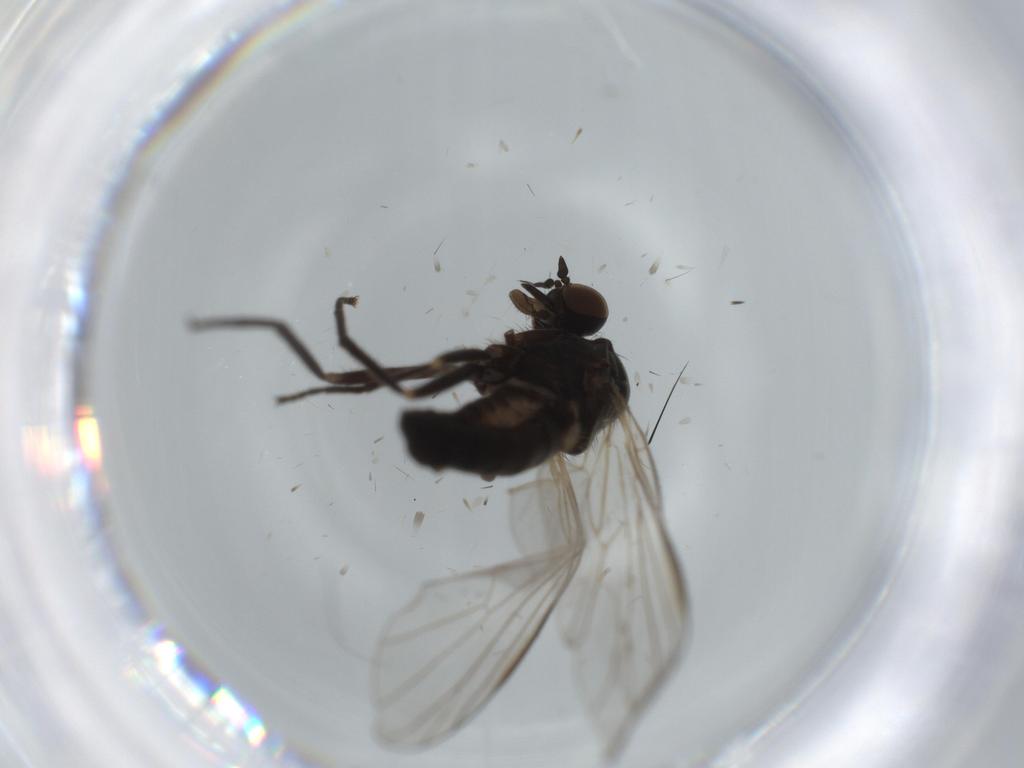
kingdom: Animalia
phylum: Arthropoda
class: Insecta
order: Diptera
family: Empididae
